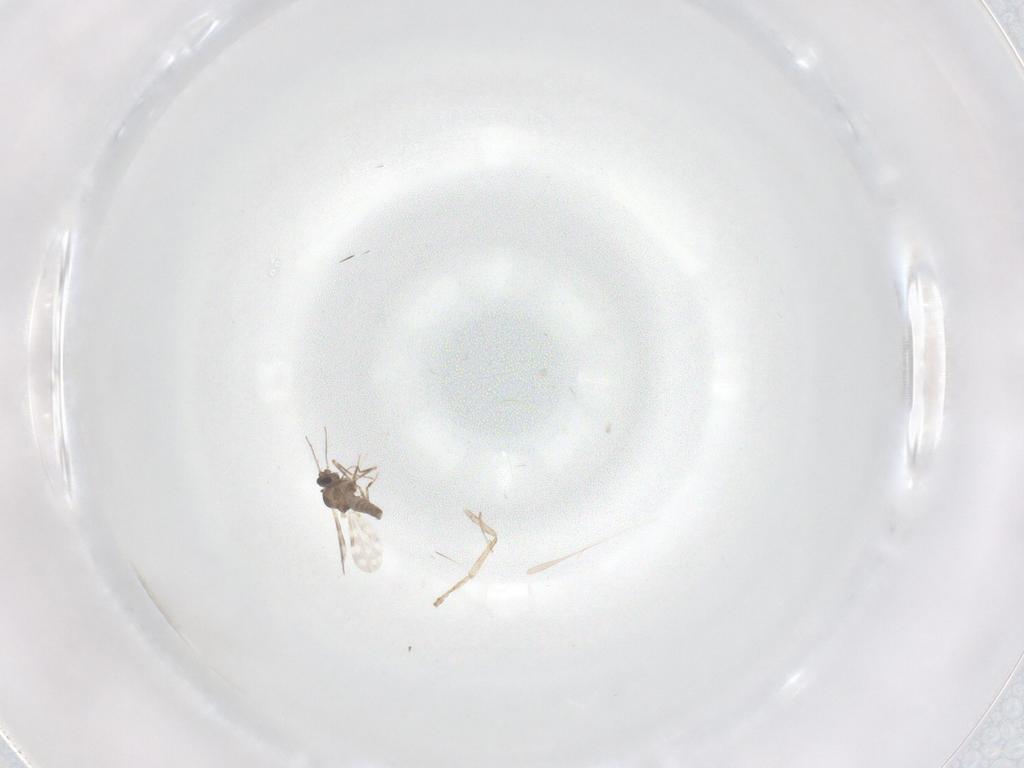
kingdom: Animalia
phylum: Arthropoda
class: Insecta
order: Diptera
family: Cecidomyiidae
